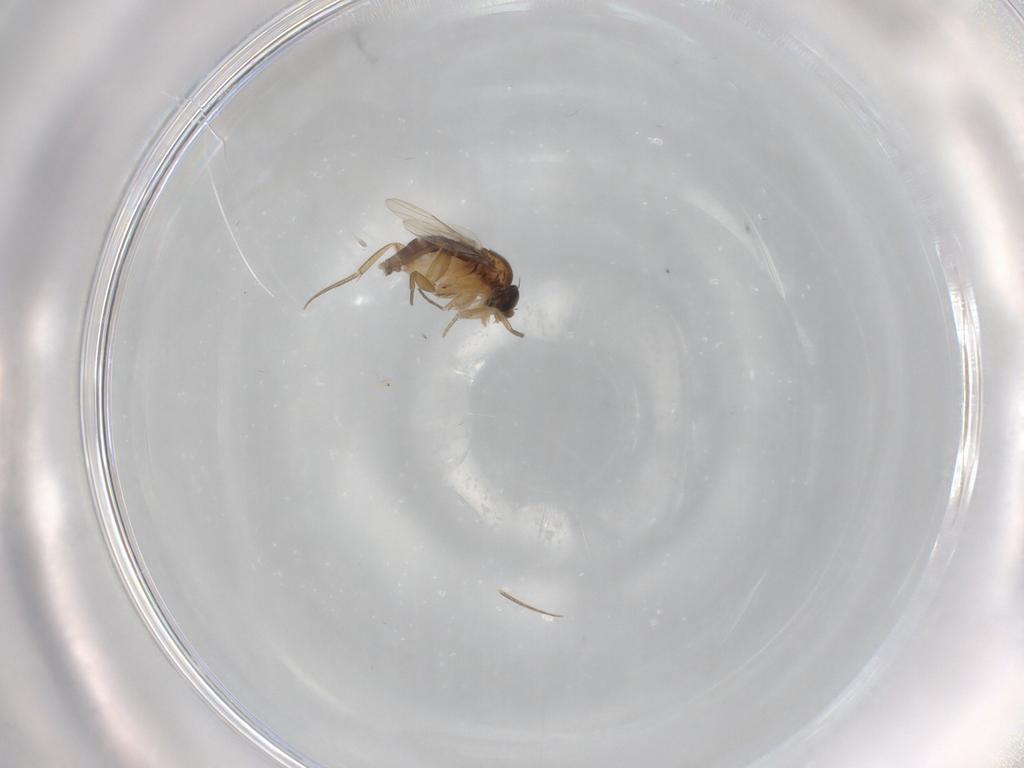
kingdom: Animalia
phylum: Arthropoda
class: Insecta
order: Diptera
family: Cecidomyiidae
